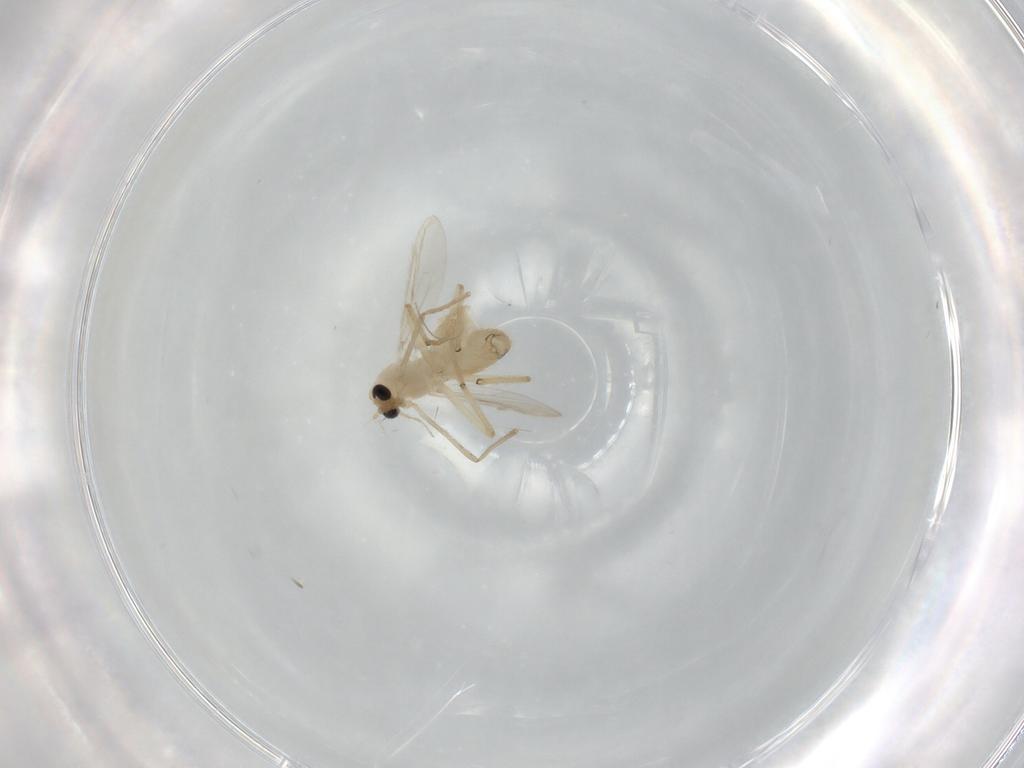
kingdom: Animalia
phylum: Arthropoda
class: Insecta
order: Diptera
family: Chironomidae
